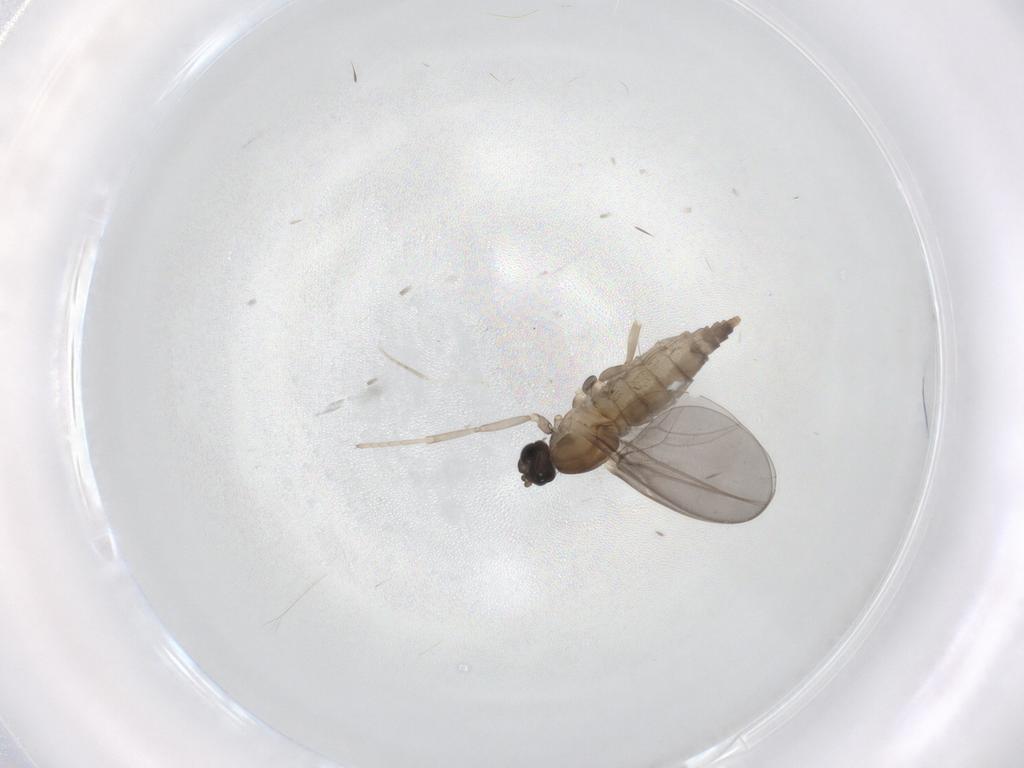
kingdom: Animalia
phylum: Arthropoda
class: Insecta
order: Diptera
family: Cecidomyiidae
